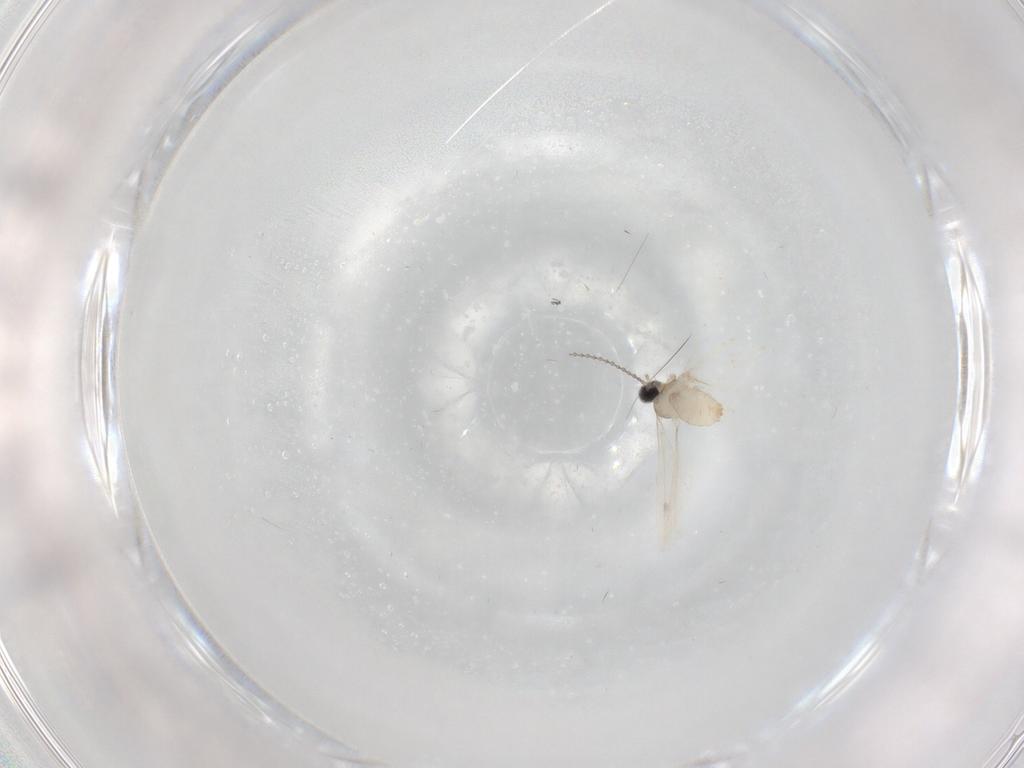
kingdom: Animalia
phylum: Arthropoda
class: Insecta
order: Diptera
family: Cecidomyiidae
